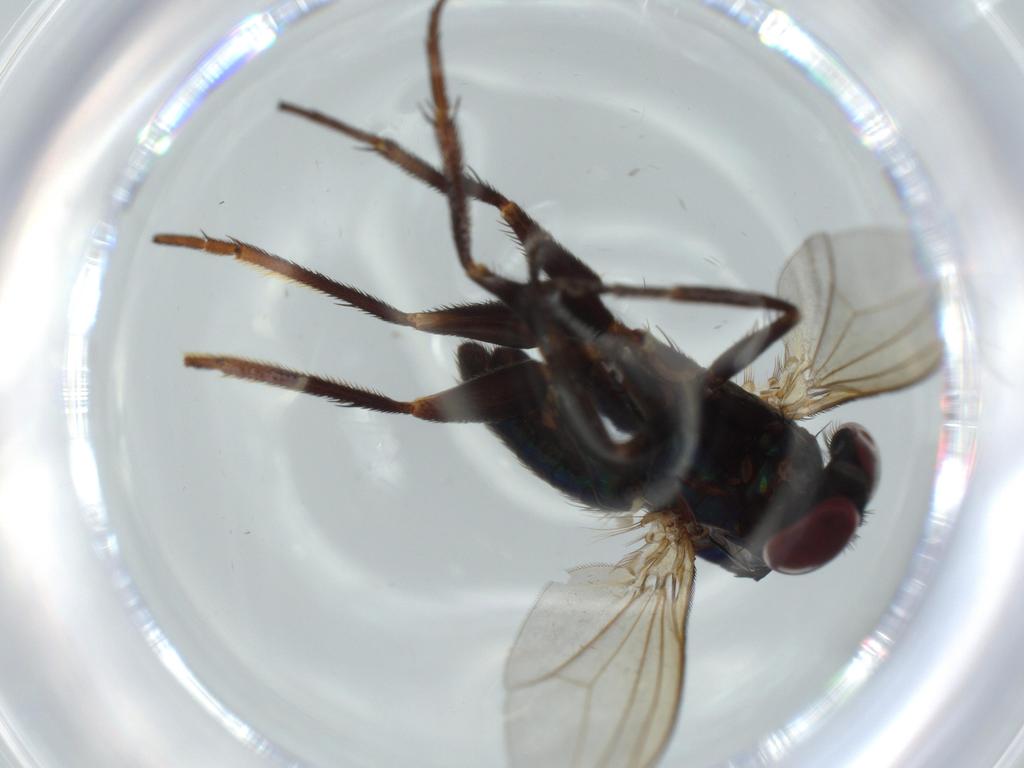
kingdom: Animalia
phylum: Arthropoda
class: Insecta
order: Diptera
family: Dolichopodidae
